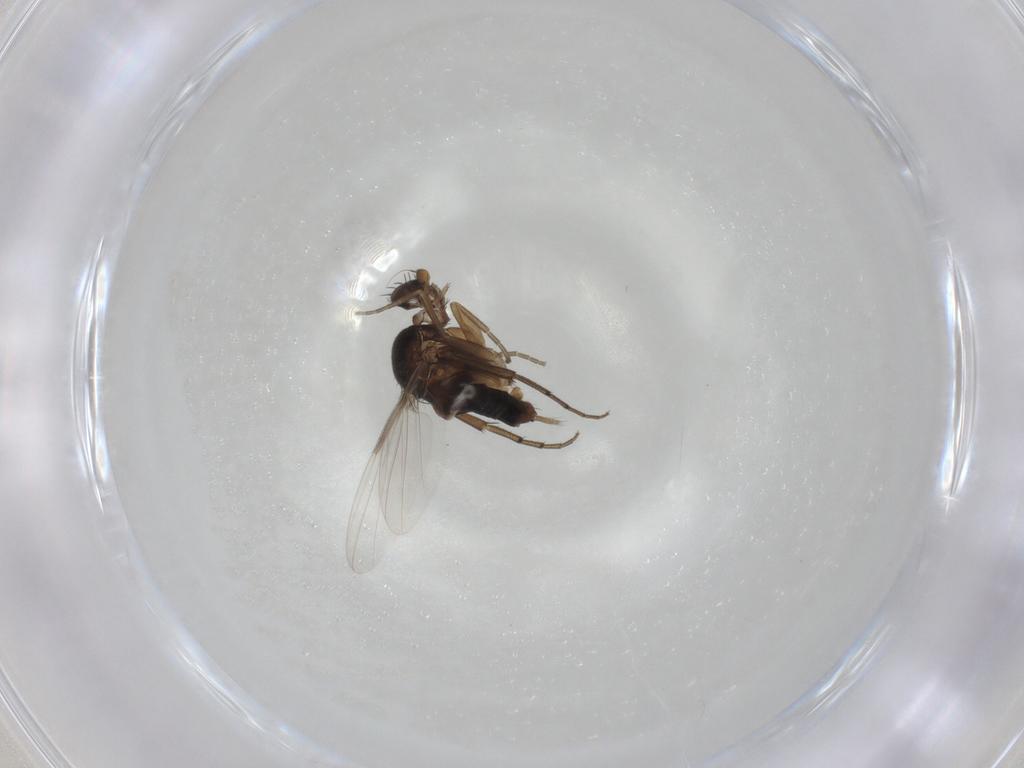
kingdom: Animalia
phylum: Arthropoda
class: Insecta
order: Diptera
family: Phoridae
